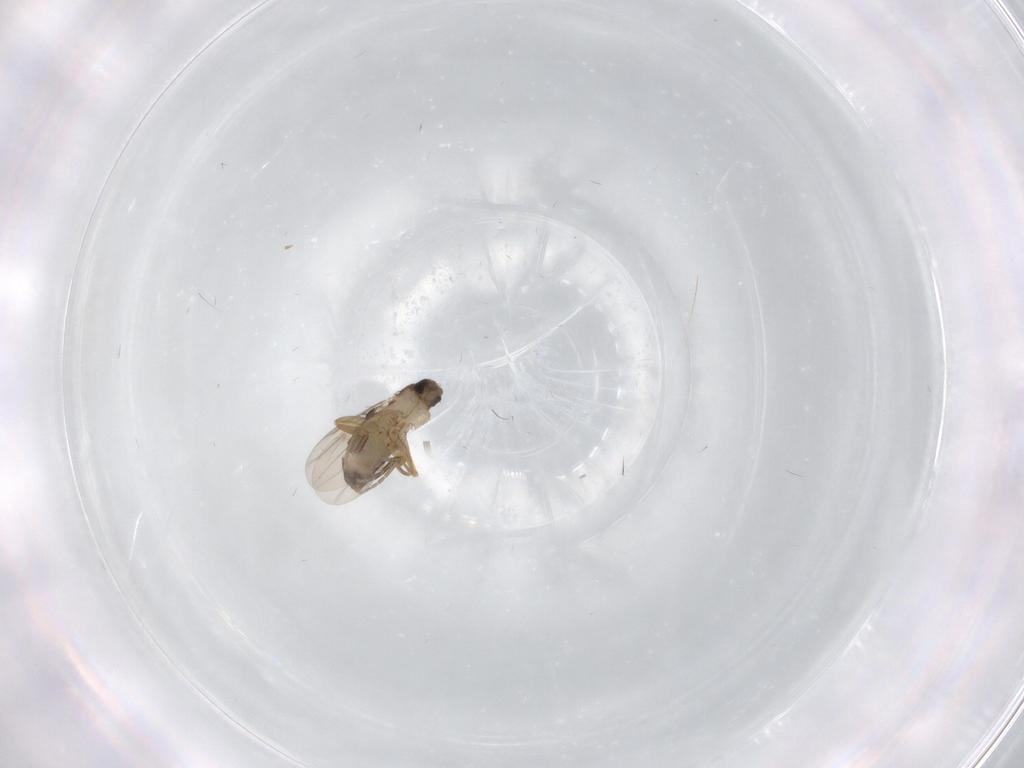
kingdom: Animalia
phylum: Arthropoda
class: Insecta
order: Diptera
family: Phoridae
